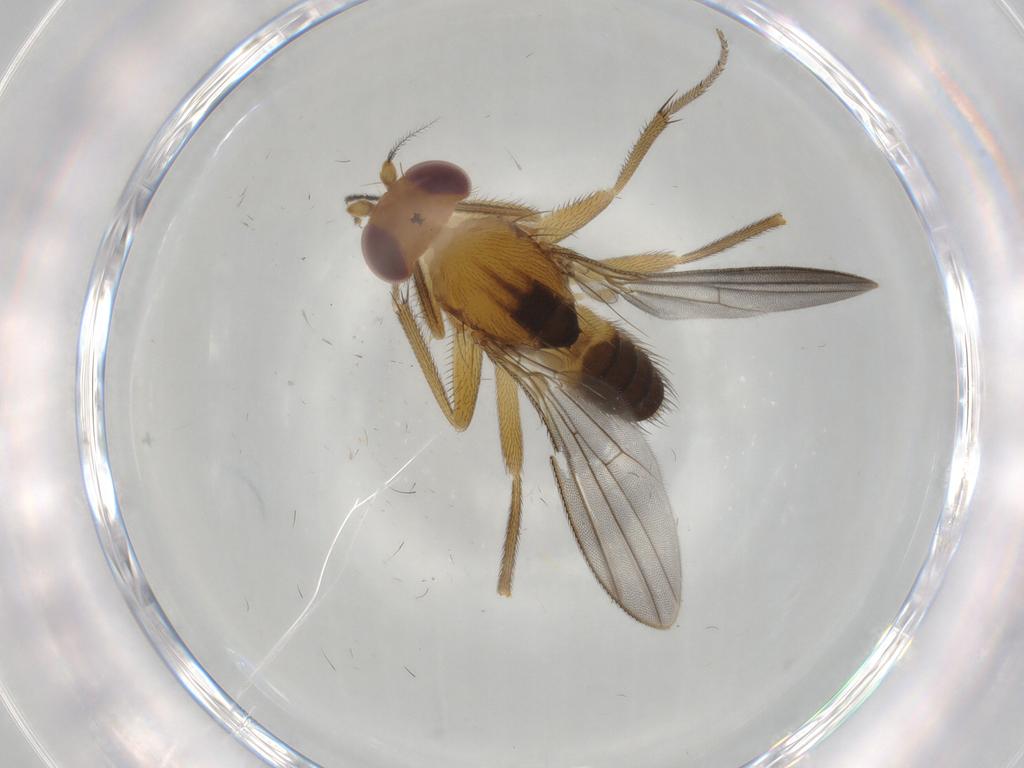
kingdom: Animalia
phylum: Arthropoda
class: Insecta
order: Diptera
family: Clusiidae
